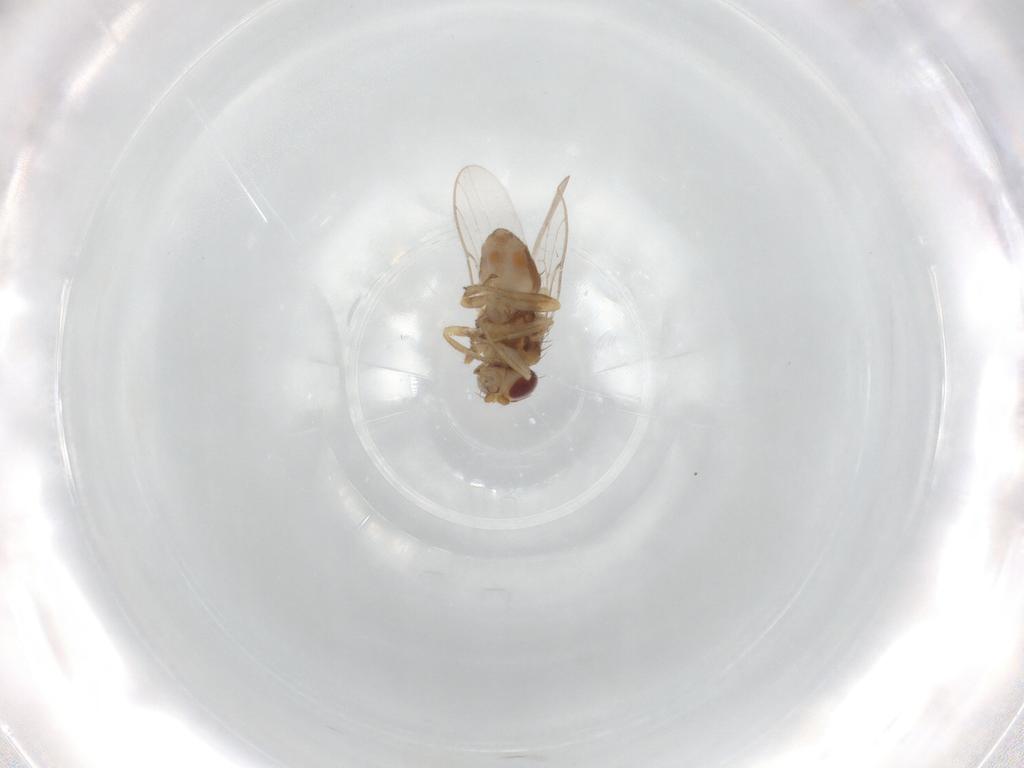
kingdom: Animalia
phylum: Arthropoda
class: Insecta
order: Diptera
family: Chloropidae
